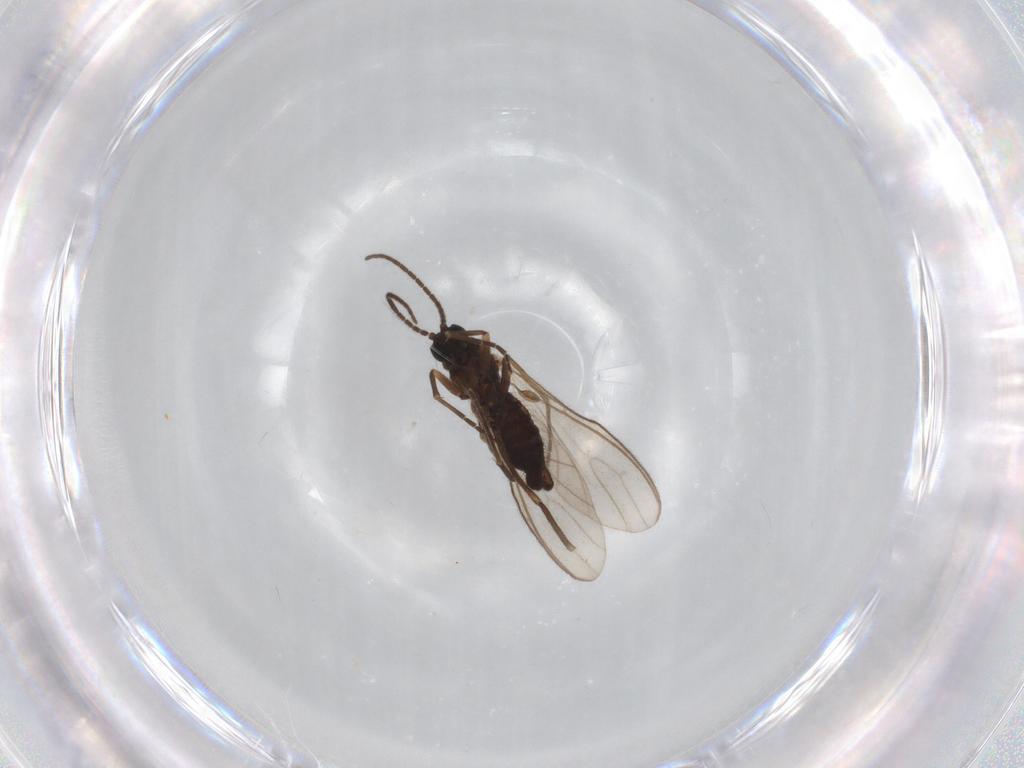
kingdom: Animalia
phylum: Arthropoda
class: Insecta
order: Diptera
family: Sciaridae
